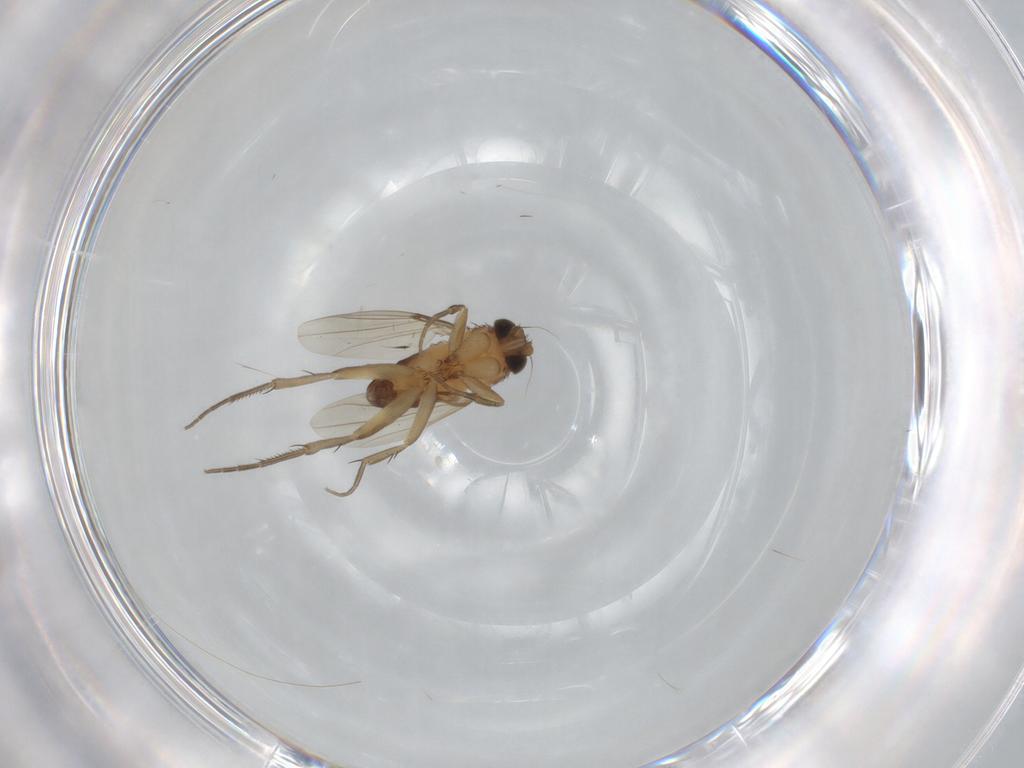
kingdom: Animalia
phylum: Arthropoda
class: Insecta
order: Diptera
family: Phoridae
